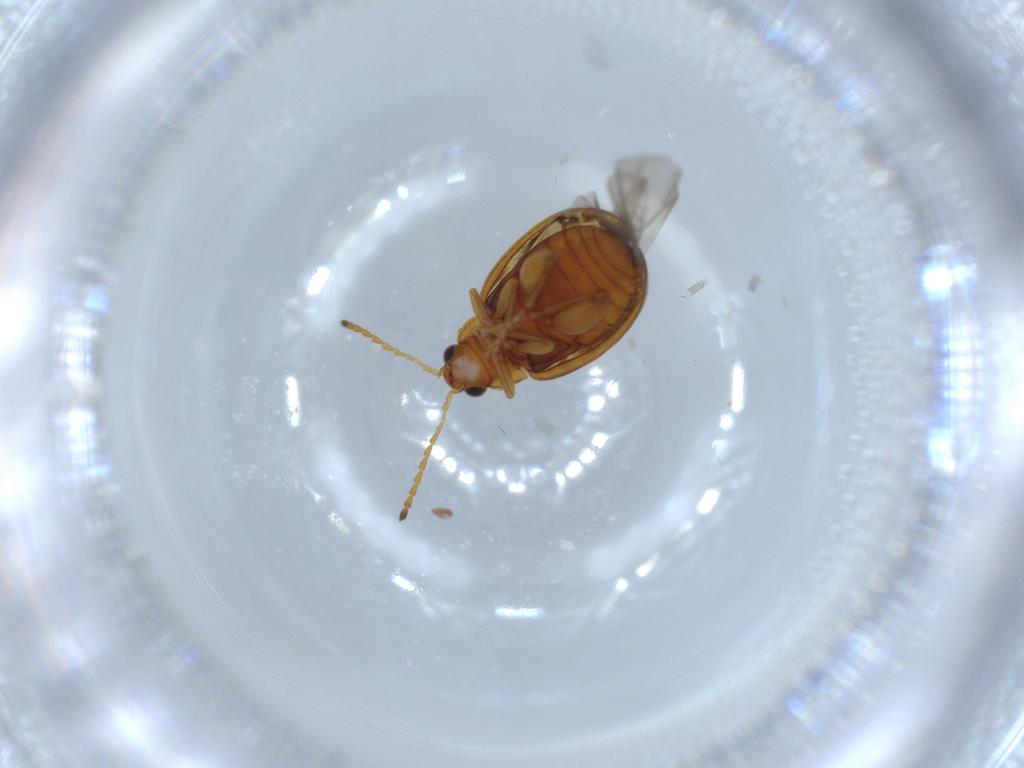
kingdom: Animalia
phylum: Arthropoda
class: Insecta
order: Coleoptera
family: Chrysomelidae
